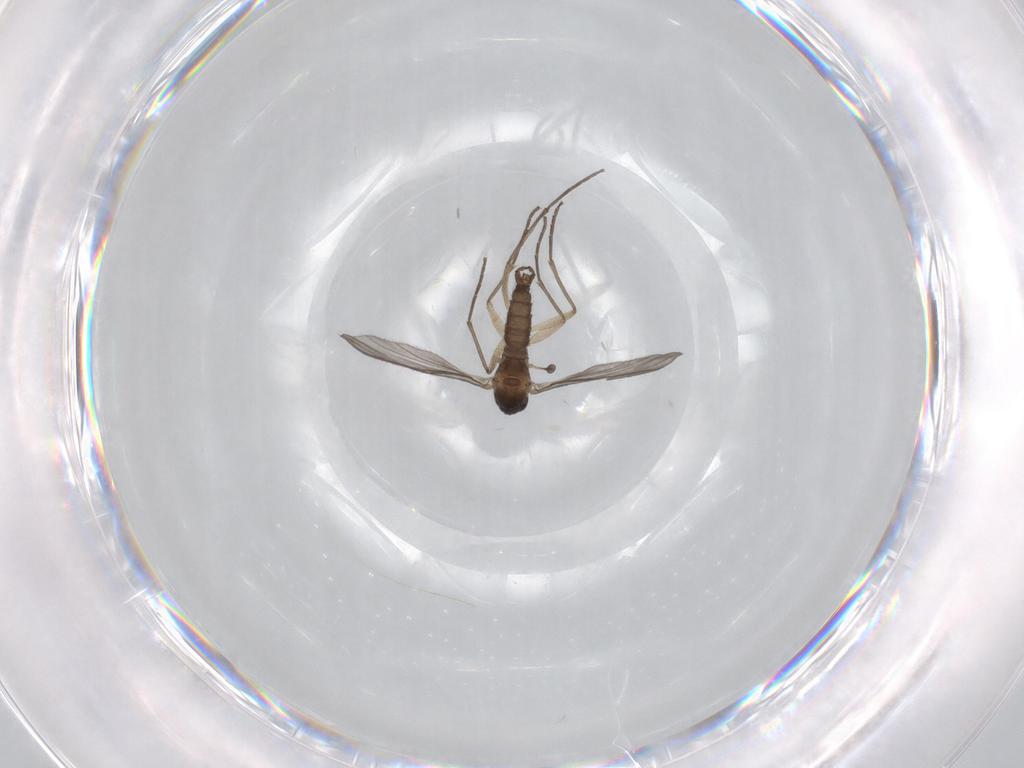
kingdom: Animalia
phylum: Arthropoda
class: Insecta
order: Diptera
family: Sciaridae
